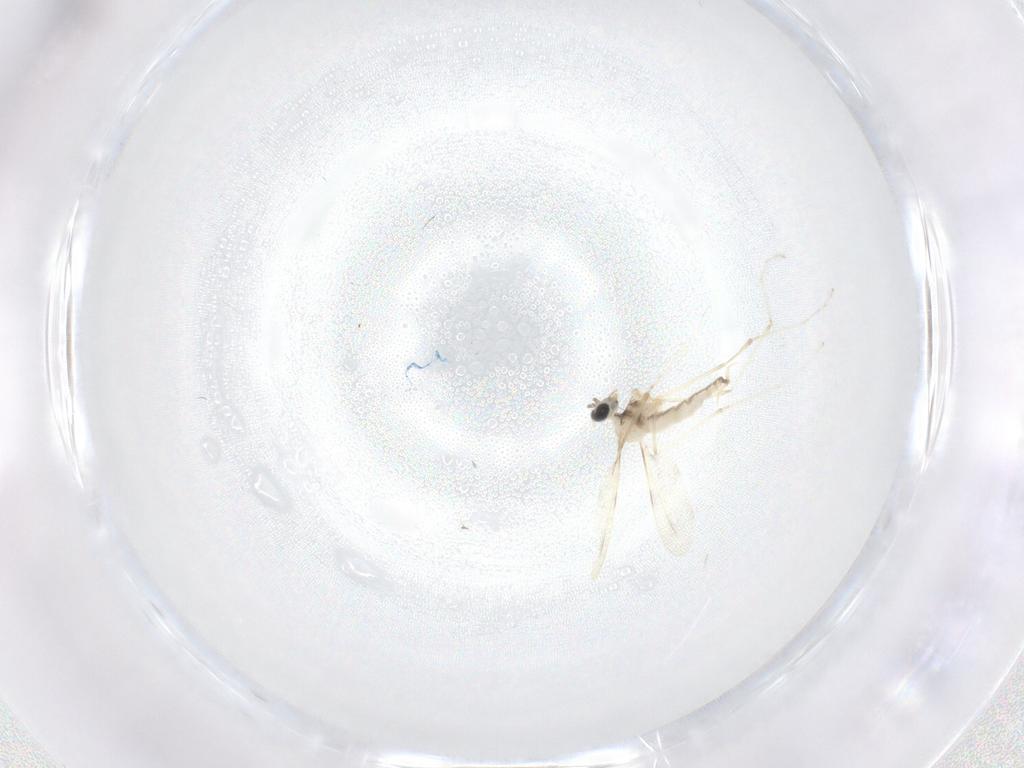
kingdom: Animalia
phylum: Arthropoda
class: Insecta
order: Diptera
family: Cecidomyiidae
